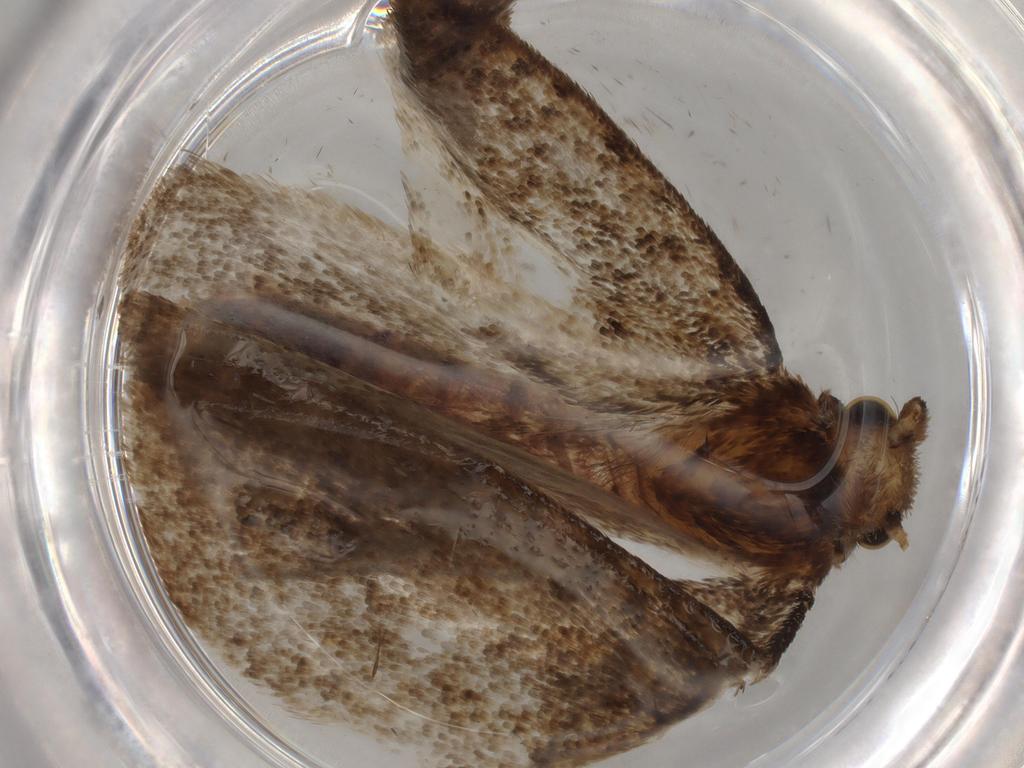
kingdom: Animalia
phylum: Arthropoda
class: Insecta
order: Lepidoptera
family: Tineidae
